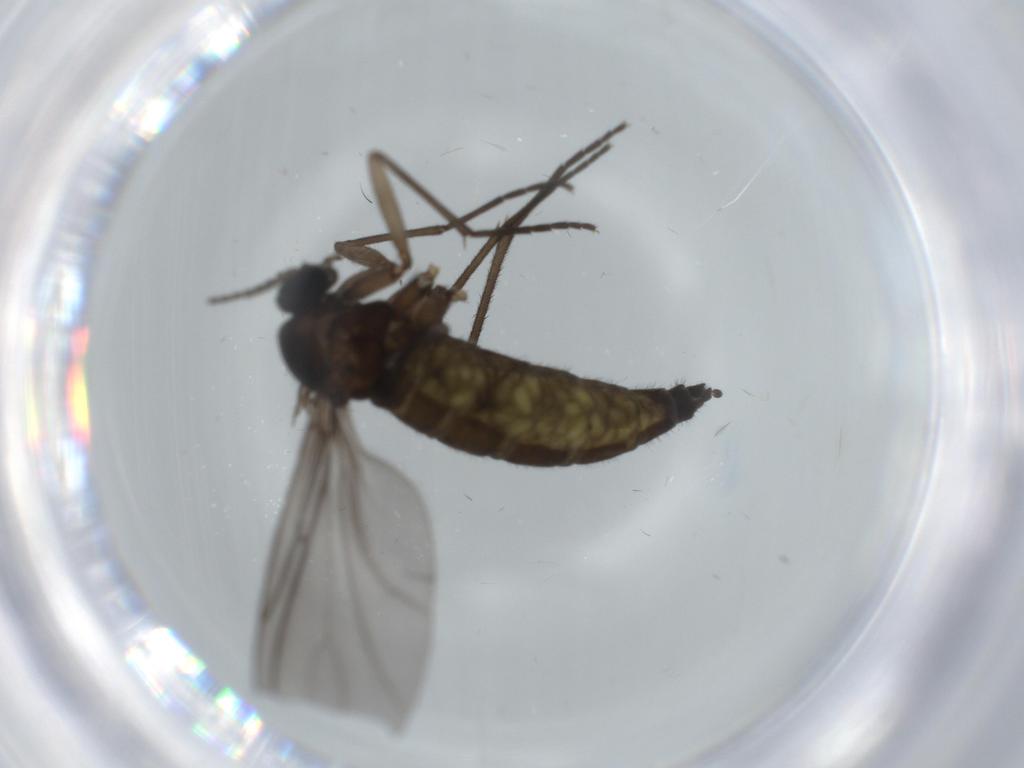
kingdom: Animalia
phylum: Arthropoda
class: Insecta
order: Diptera
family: Sciaridae
